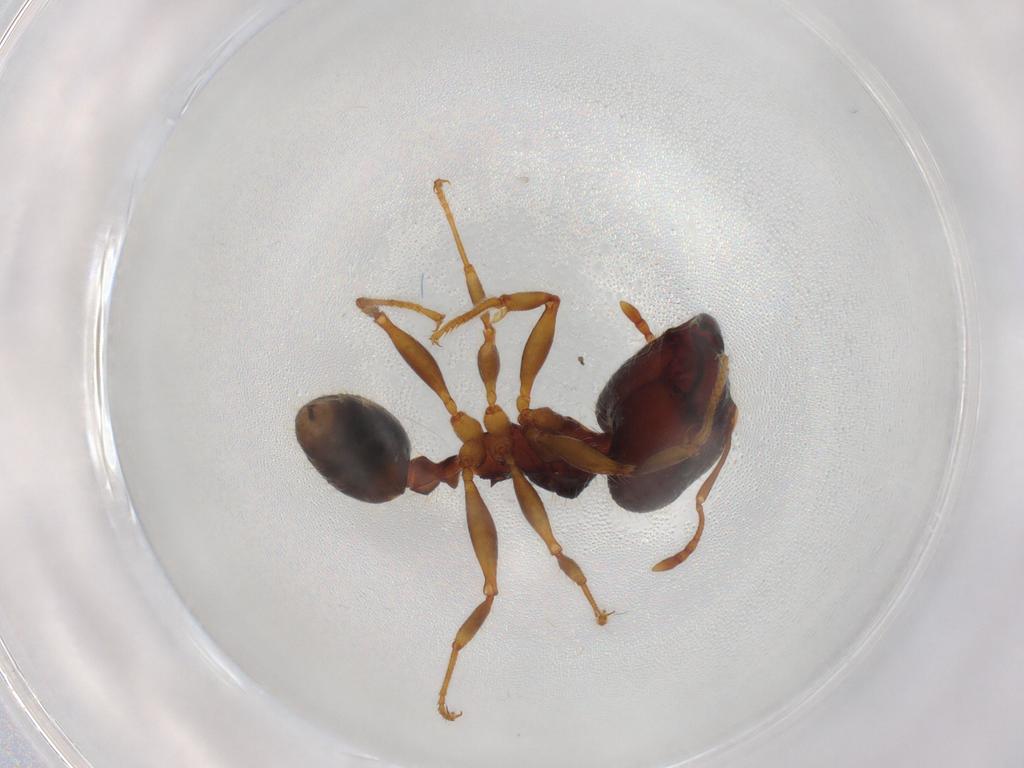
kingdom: Animalia
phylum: Arthropoda
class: Insecta
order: Hymenoptera
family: Formicidae
